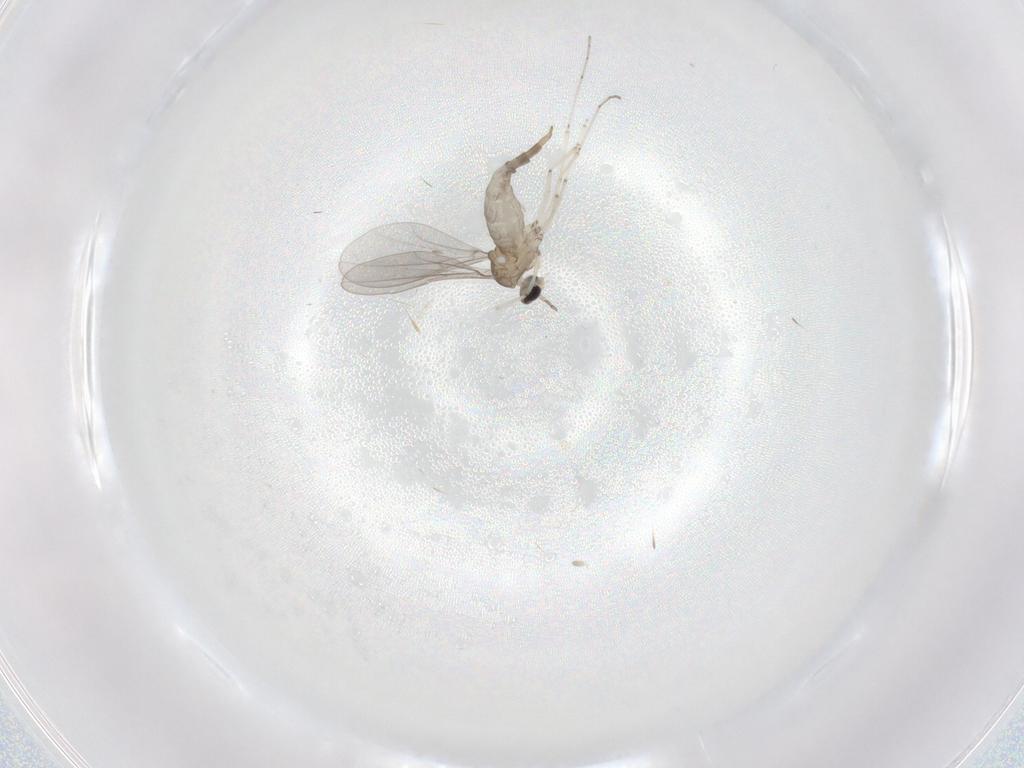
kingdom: Animalia
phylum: Arthropoda
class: Insecta
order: Diptera
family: Cecidomyiidae
